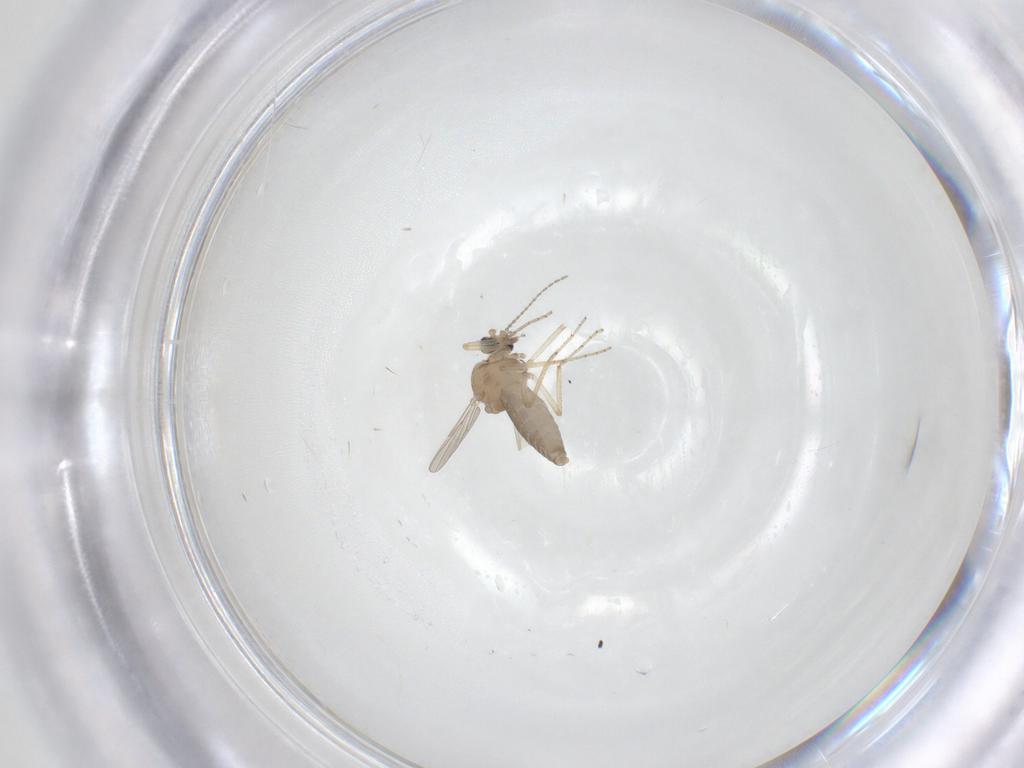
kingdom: Animalia
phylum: Arthropoda
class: Insecta
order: Diptera
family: Ceratopogonidae
